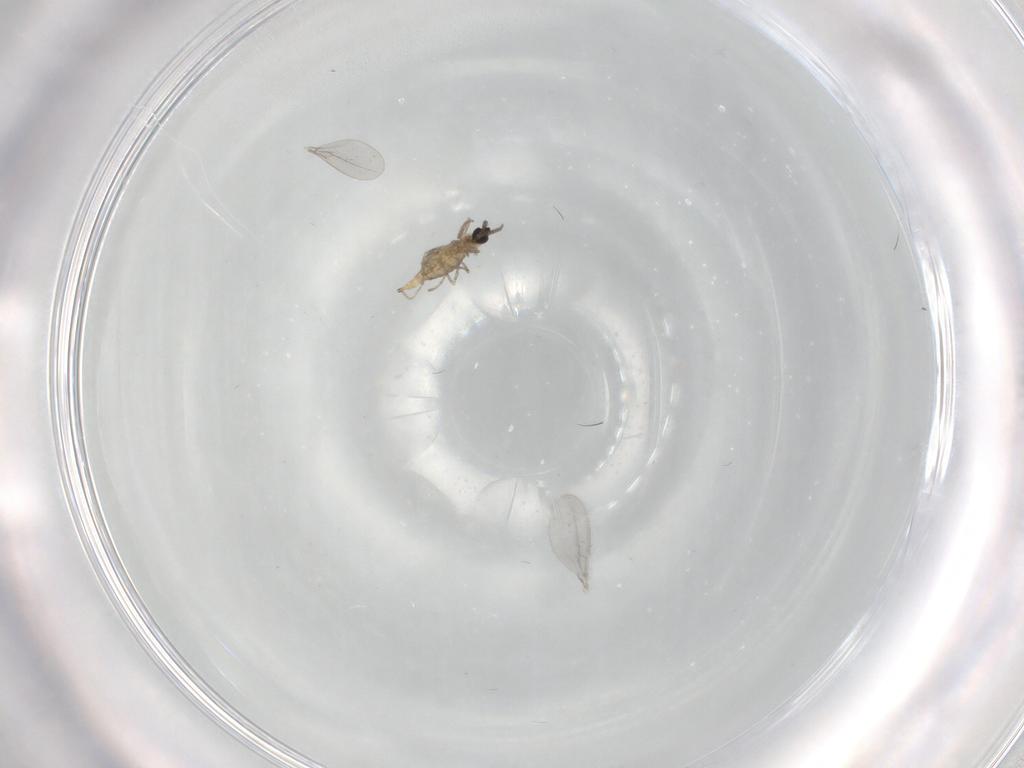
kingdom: Animalia
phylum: Arthropoda
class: Insecta
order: Diptera
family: Cecidomyiidae
